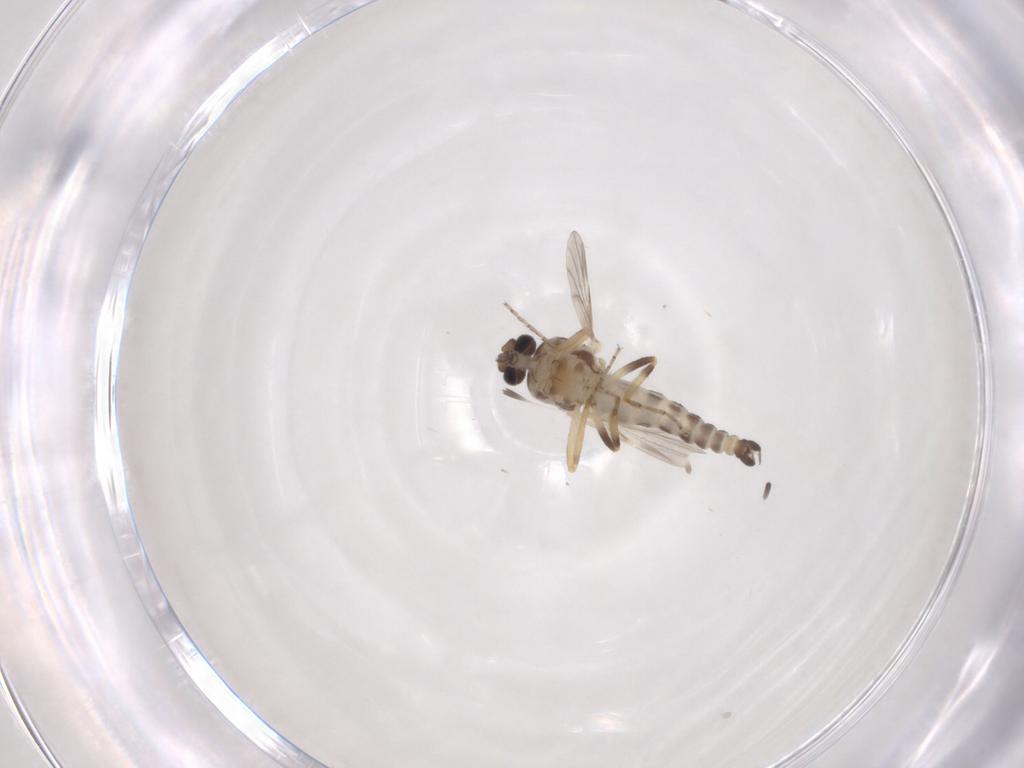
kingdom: Animalia
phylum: Arthropoda
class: Insecta
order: Diptera
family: Ceratopogonidae
